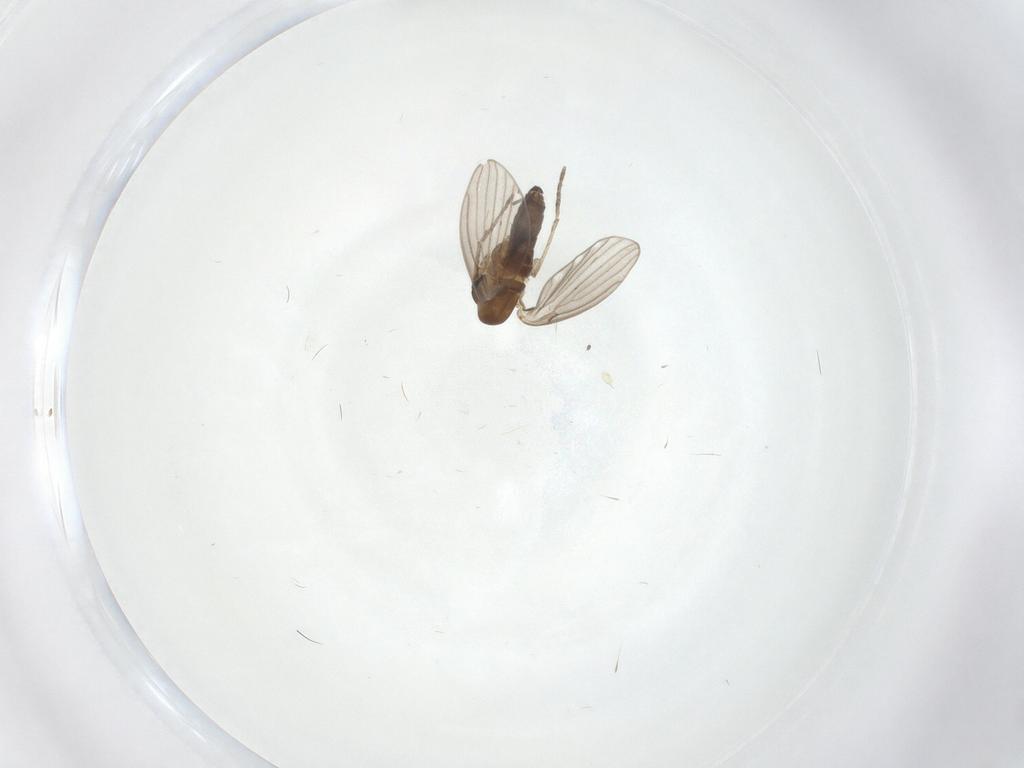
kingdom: Animalia
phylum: Arthropoda
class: Insecta
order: Diptera
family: Psychodidae
